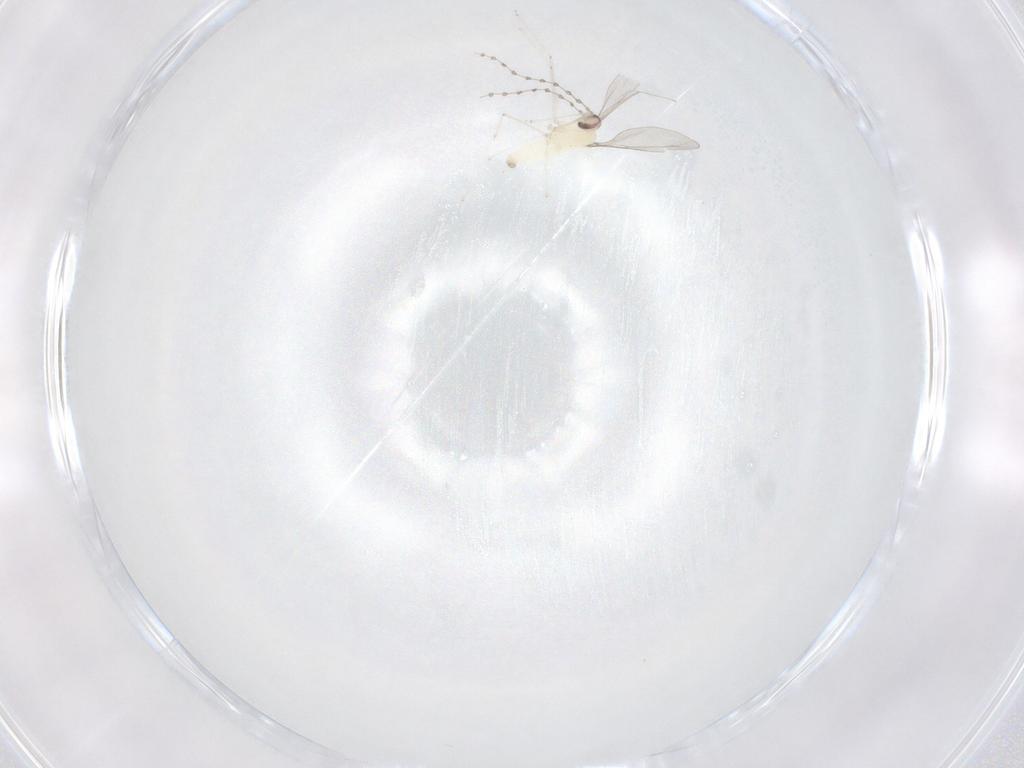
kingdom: Animalia
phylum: Arthropoda
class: Insecta
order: Diptera
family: Cecidomyiidae
